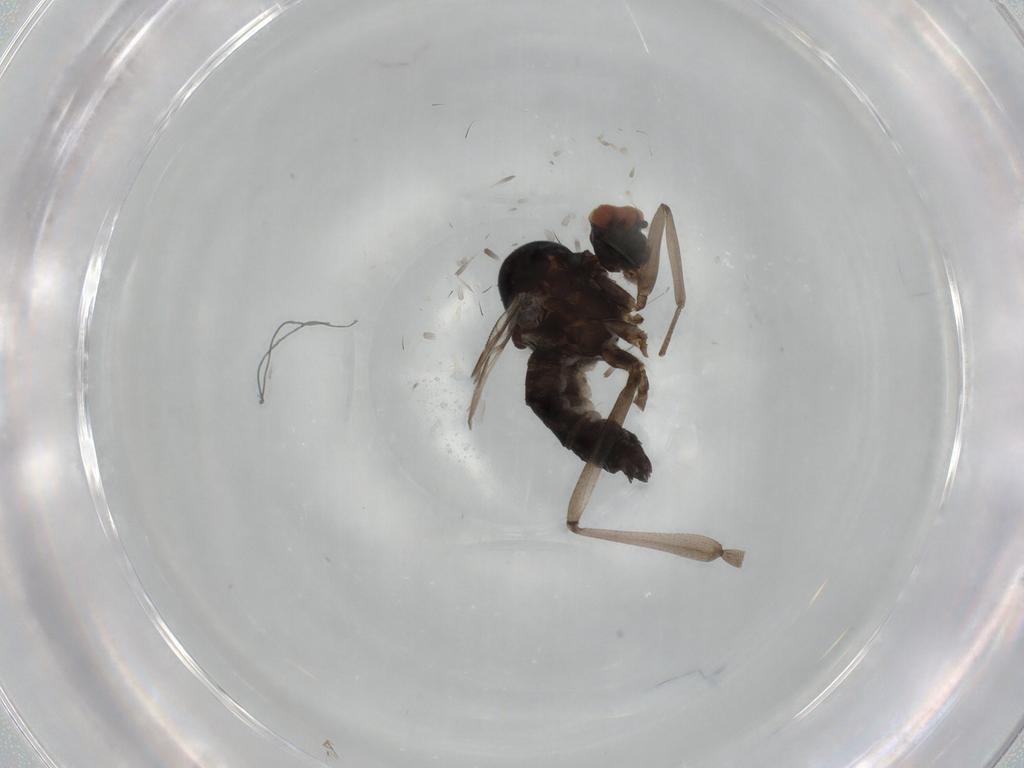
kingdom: Animalia
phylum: Arthropoda
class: Insecta
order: Diptera
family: Hybotidae
